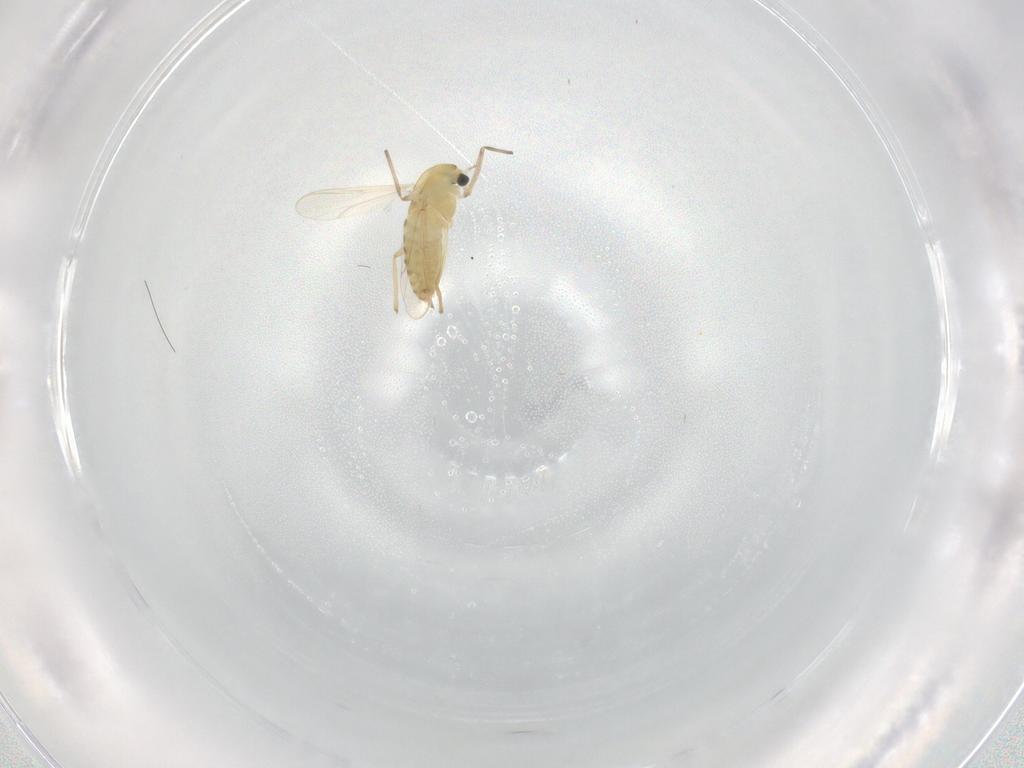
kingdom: Animalia
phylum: Arthropoda
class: Insecta
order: Diptera
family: Chironomidae
